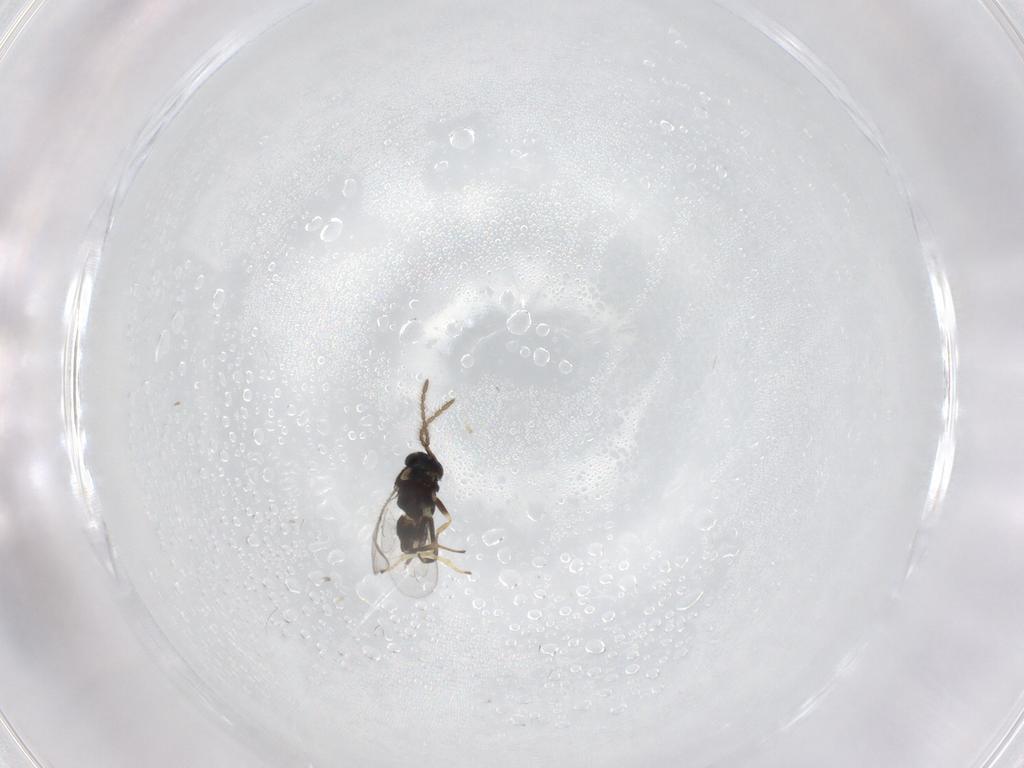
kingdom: Animalia
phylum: Arthropoda
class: Insecta
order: Hymenoptera
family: Encyrtidae
